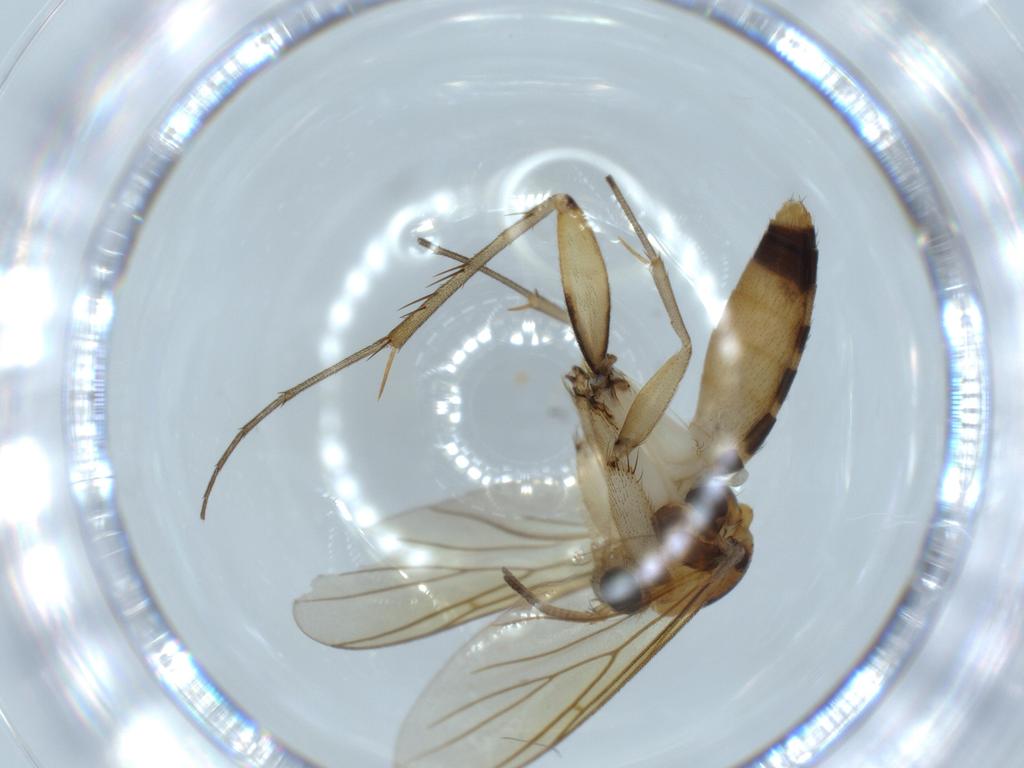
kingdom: Animalia
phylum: Arthropoda
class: Insecta
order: Diptera
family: Mycetophilidae
